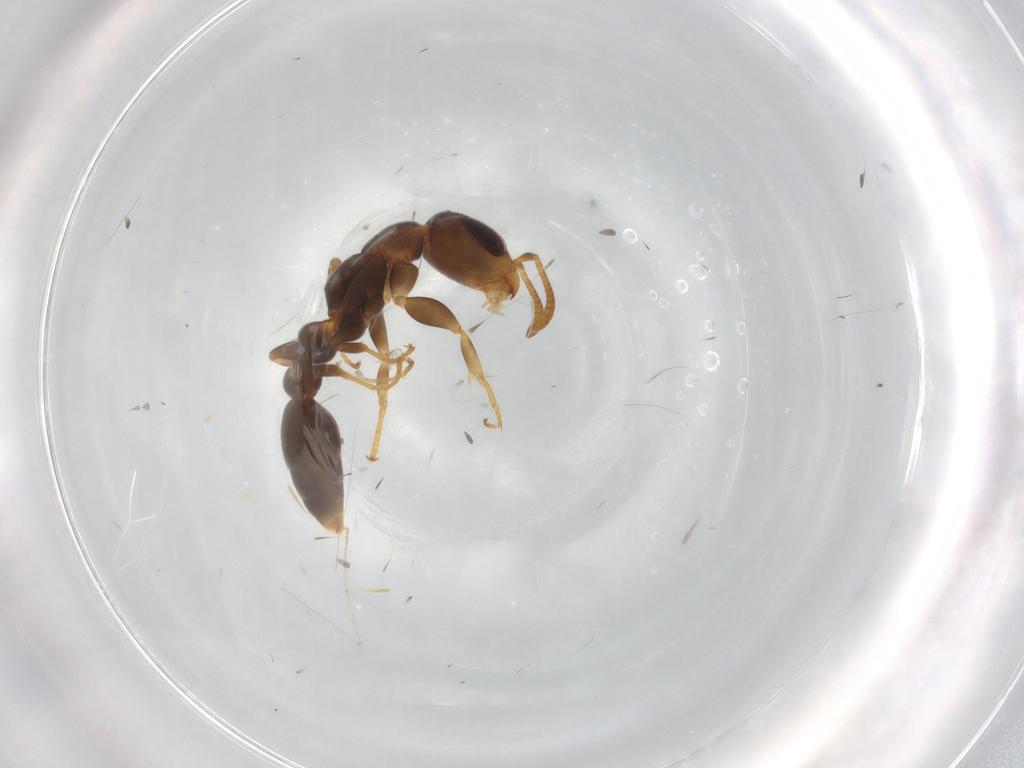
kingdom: Animalia
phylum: Arthropoda
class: Insecta
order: Hymenoptera
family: Formicidae
